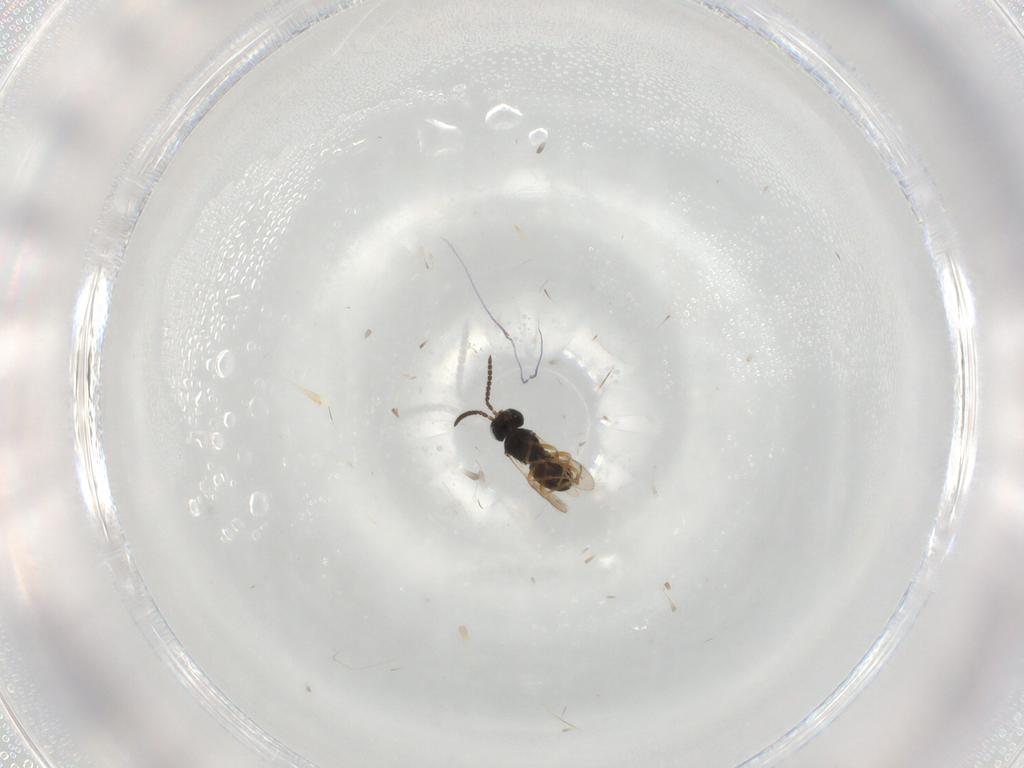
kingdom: Animalia
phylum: Arthropoda
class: Insecta
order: Hymenoptera
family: Scelionidae
